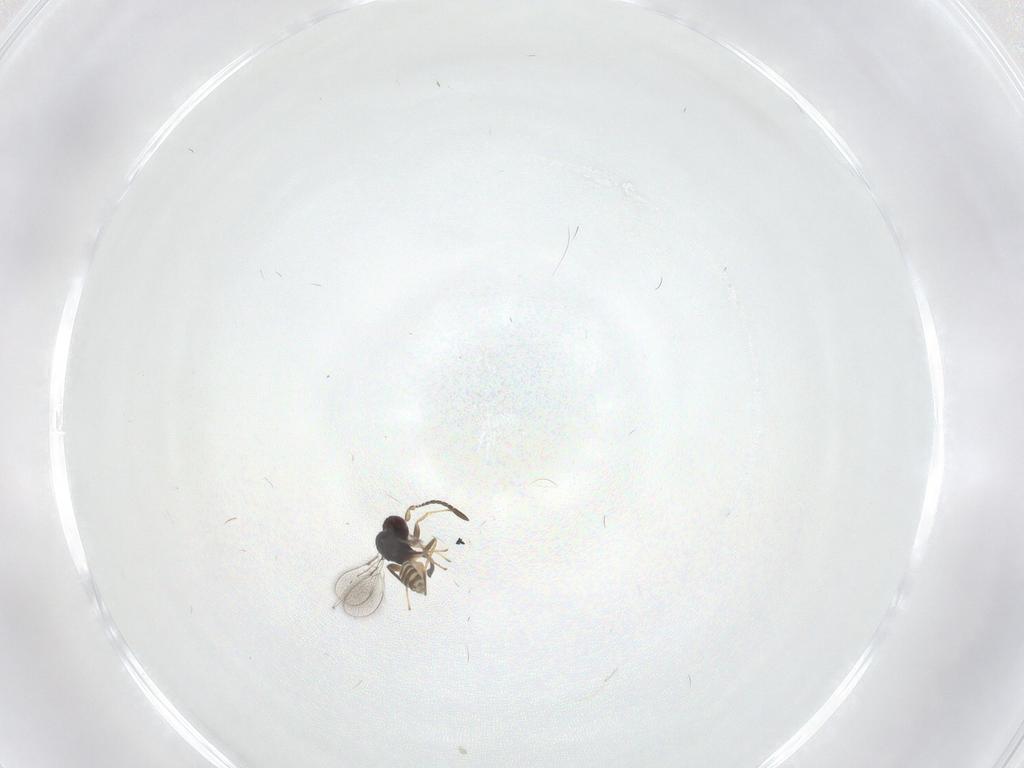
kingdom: Animalia
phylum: Arthropoda
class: Insecta
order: Hymenoptera
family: Mymaridae
